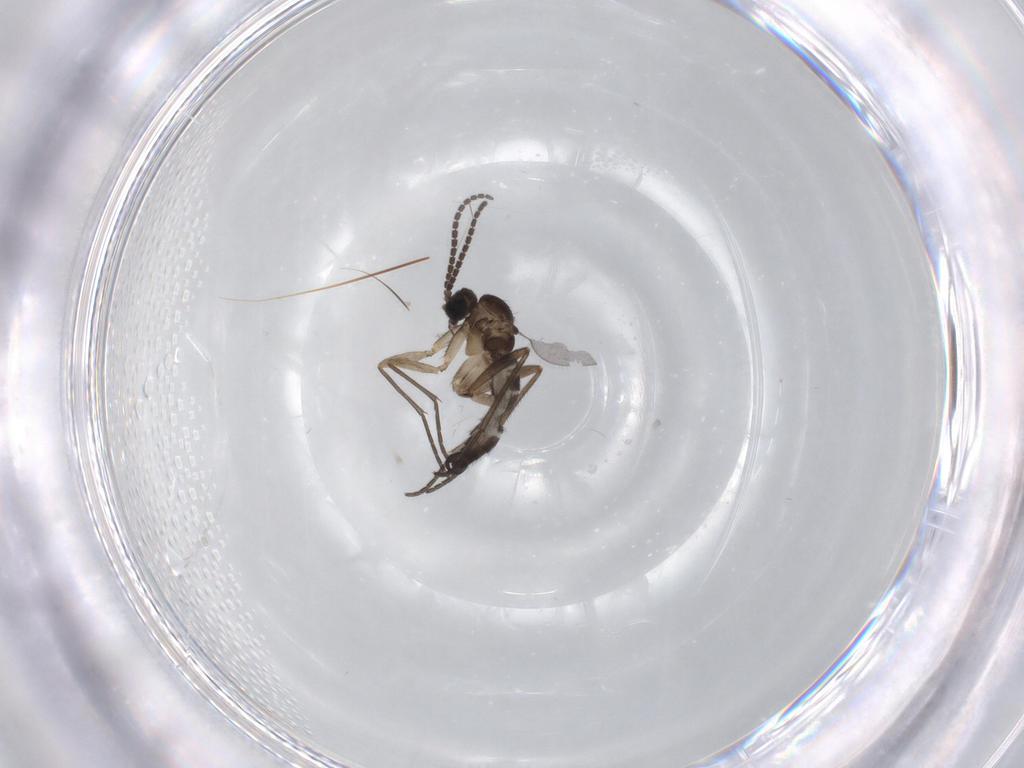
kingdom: Animalia
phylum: Arthropoda
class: Insecta
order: Diptera
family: Sciaridae
